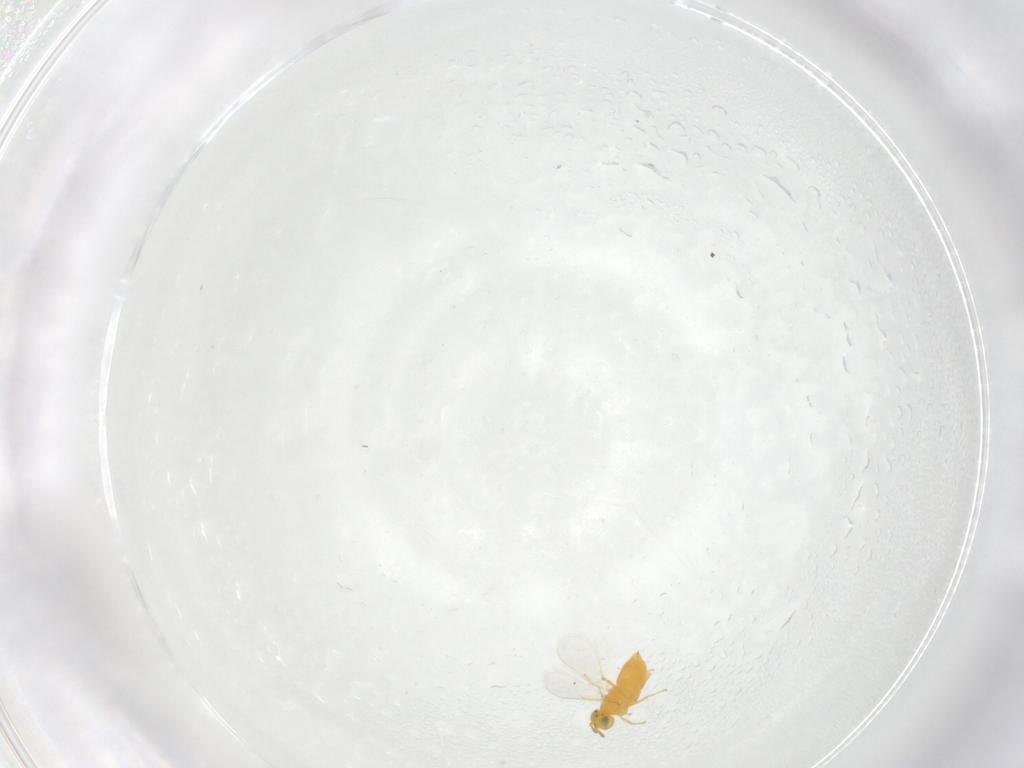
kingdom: Animalia
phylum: Arthropoda
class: Insecta
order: Hymenoptera
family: Aphelinidae
